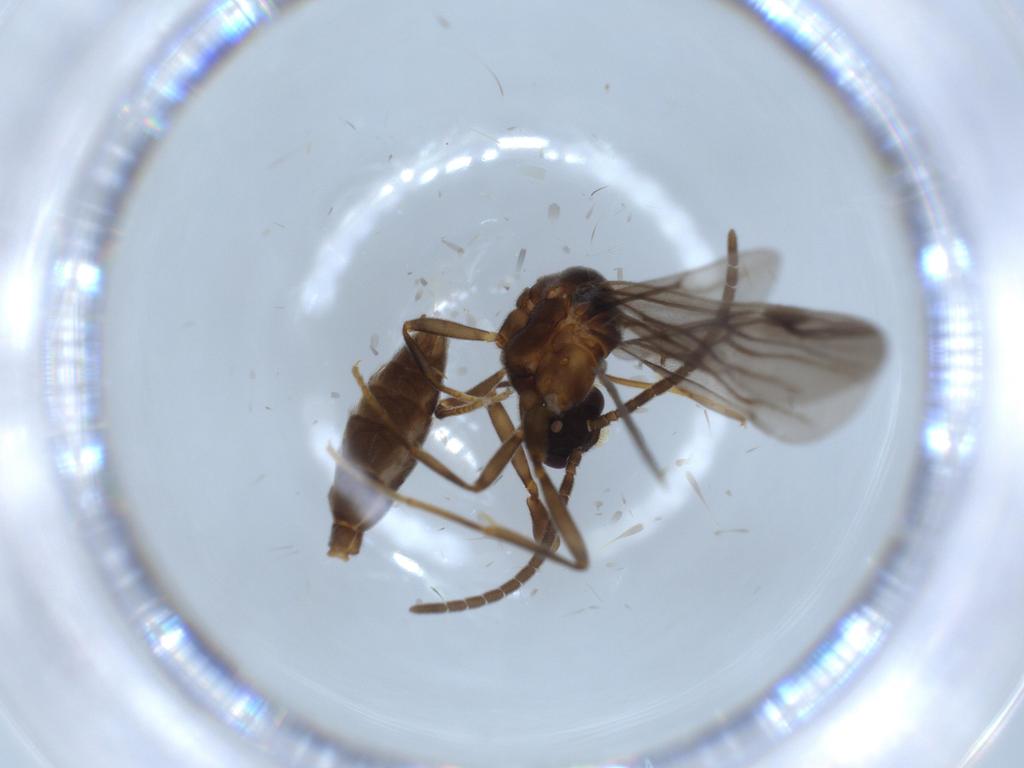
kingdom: Animalia
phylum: Arthropoda
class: Insecta
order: Hymenoptera
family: Formicidae
